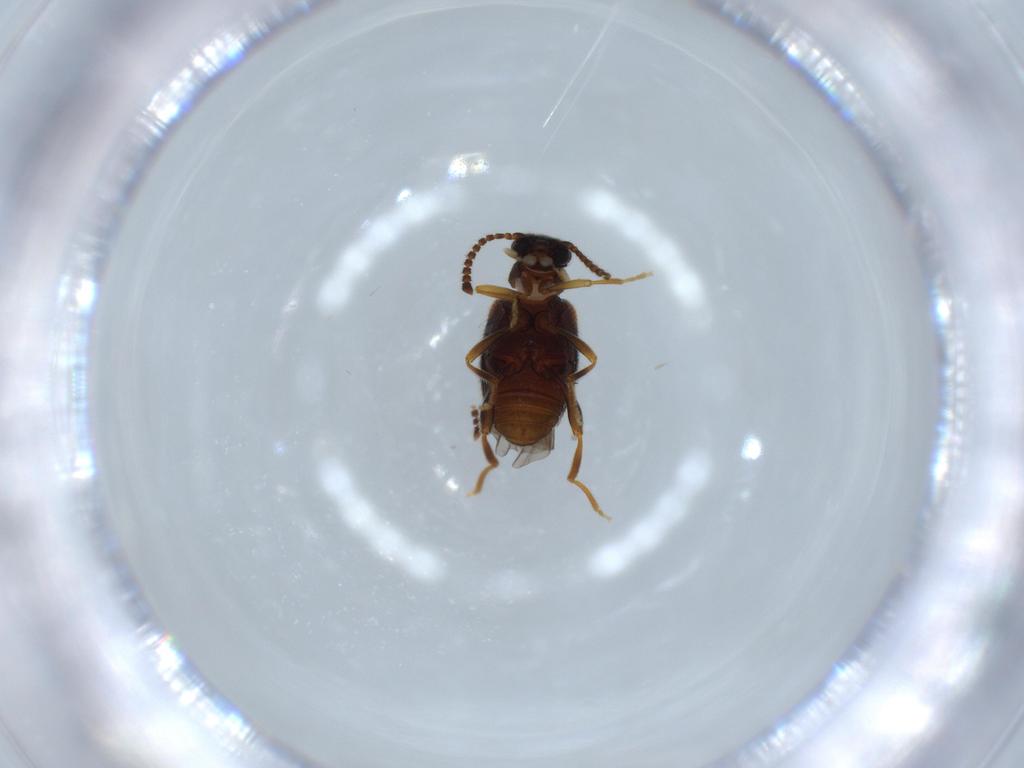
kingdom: Animalia
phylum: Arthropoda
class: Insecta
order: Coleoptera
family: Aderidae
